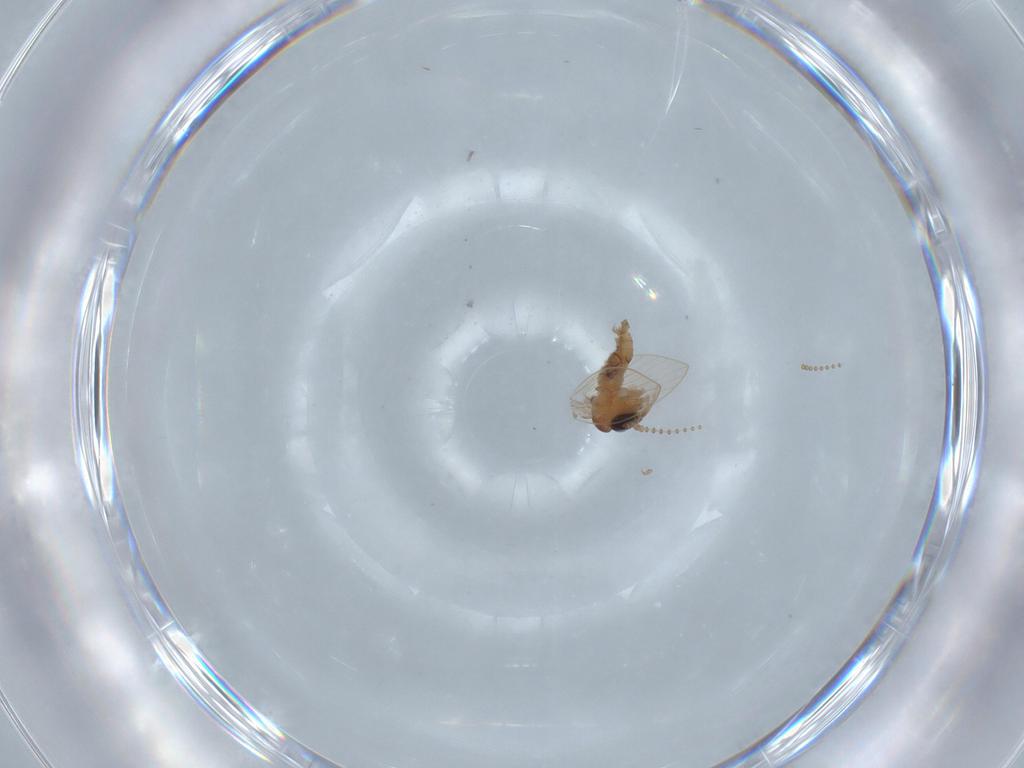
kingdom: Animalia
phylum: Arthropoda
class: Insecta
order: Diptera
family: Psychodidae
